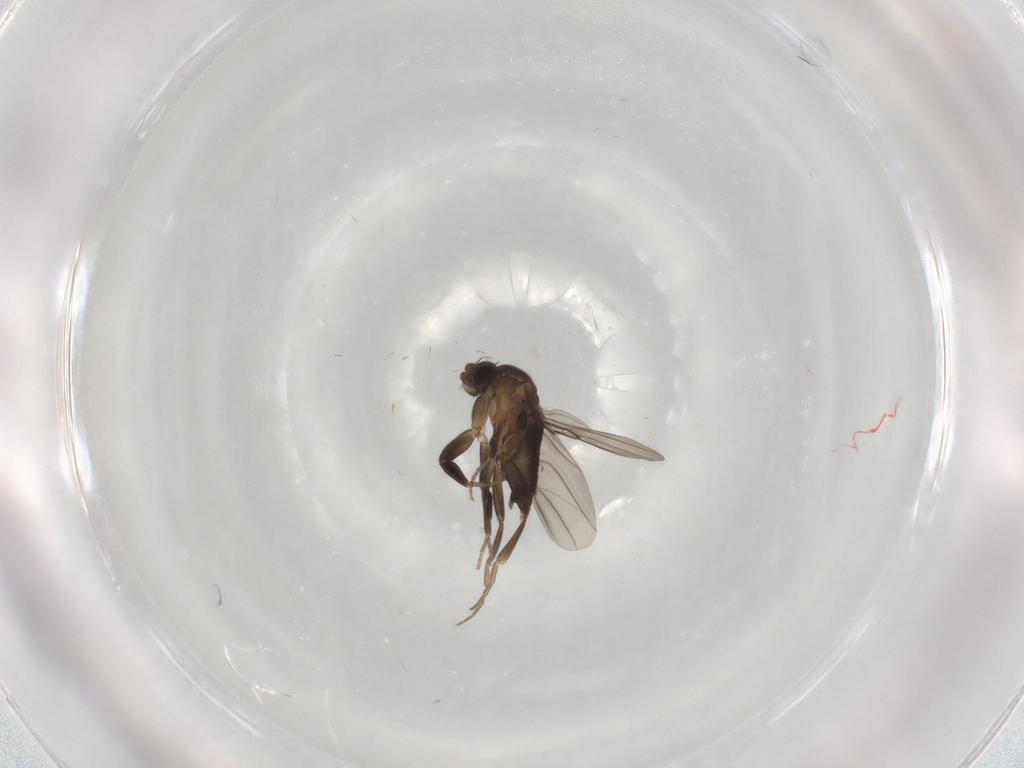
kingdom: Animalia
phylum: Arthropoda
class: Insecta
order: Diptera
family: Phoridae
